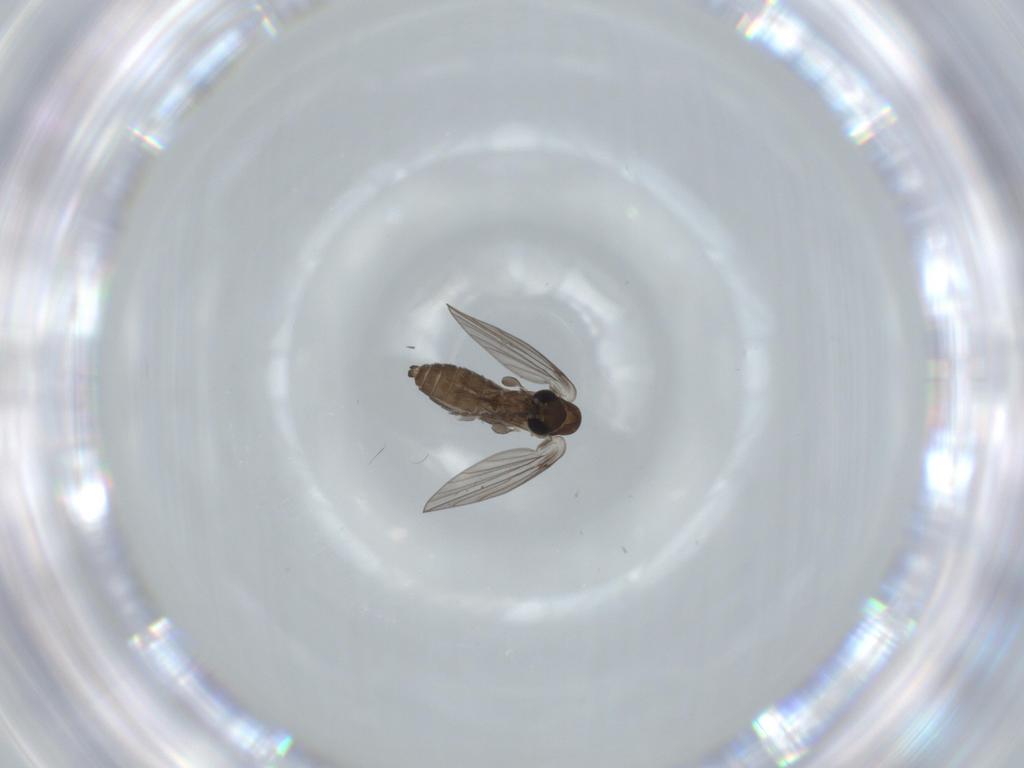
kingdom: Animalia
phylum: Arthropoda
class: Insecta
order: Diptera
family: Psychodidae
